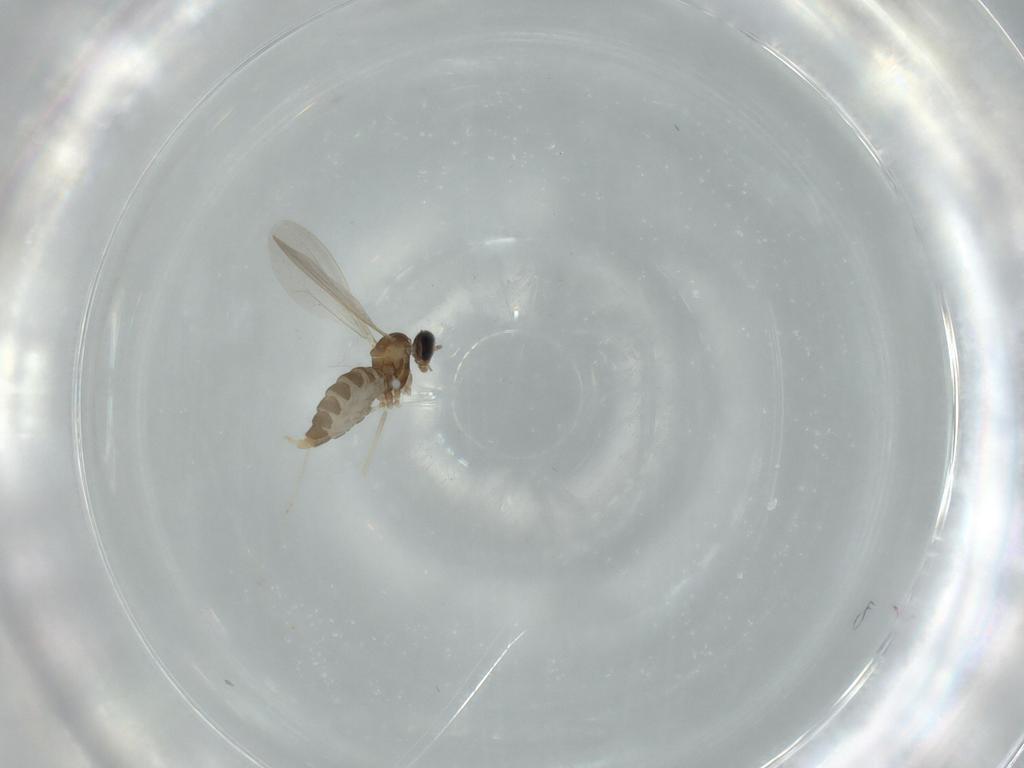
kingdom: Animalia
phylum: Arthropoda
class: Insecta
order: Diptera
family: Cecidomyiidae
